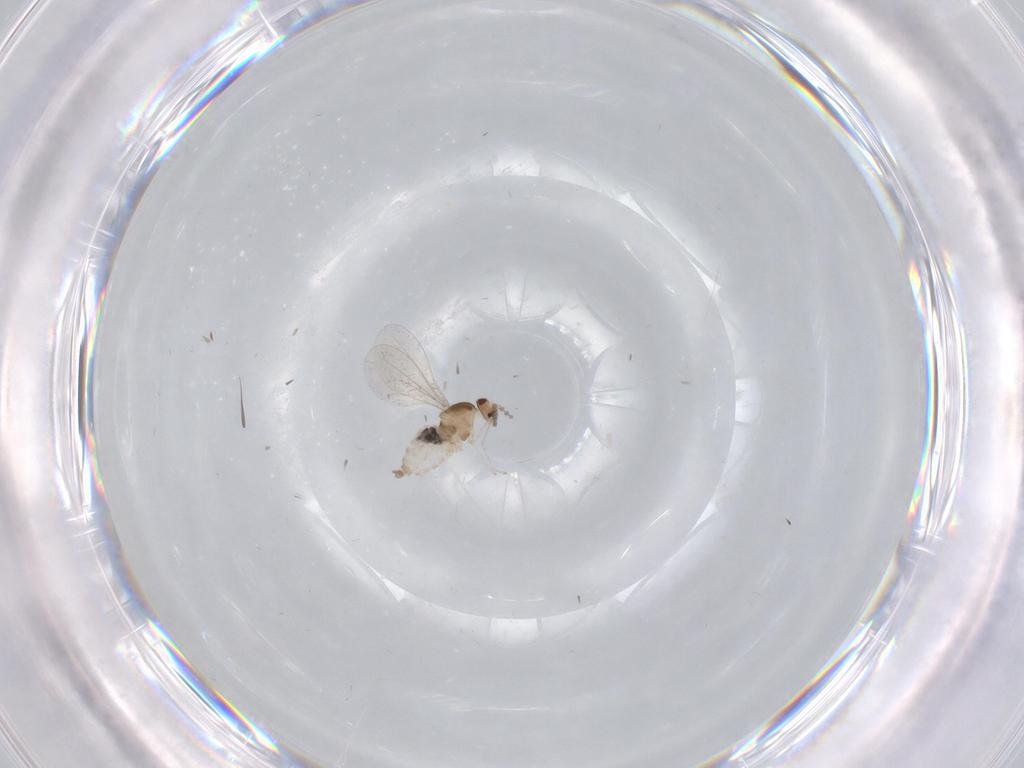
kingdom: Animalia
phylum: Arthropoda
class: Insecta
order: Diptera
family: Cecidomyiidae
